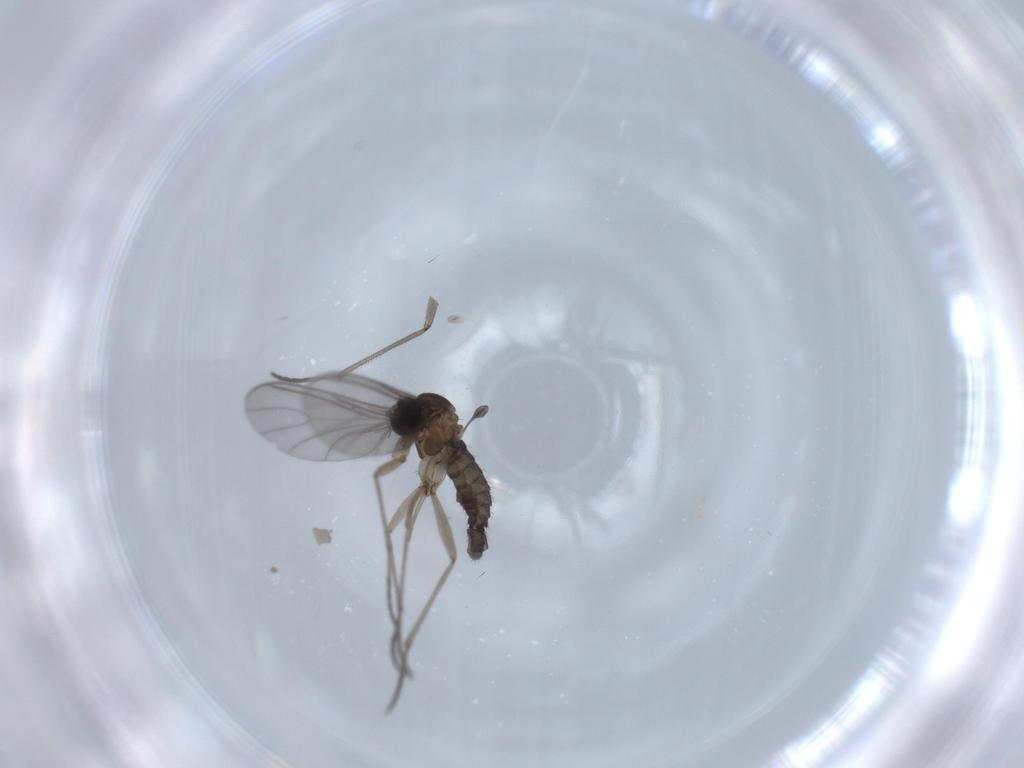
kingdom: Animalia
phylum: Arthropoda
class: Insecta
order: Diptera
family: Sciaridae
